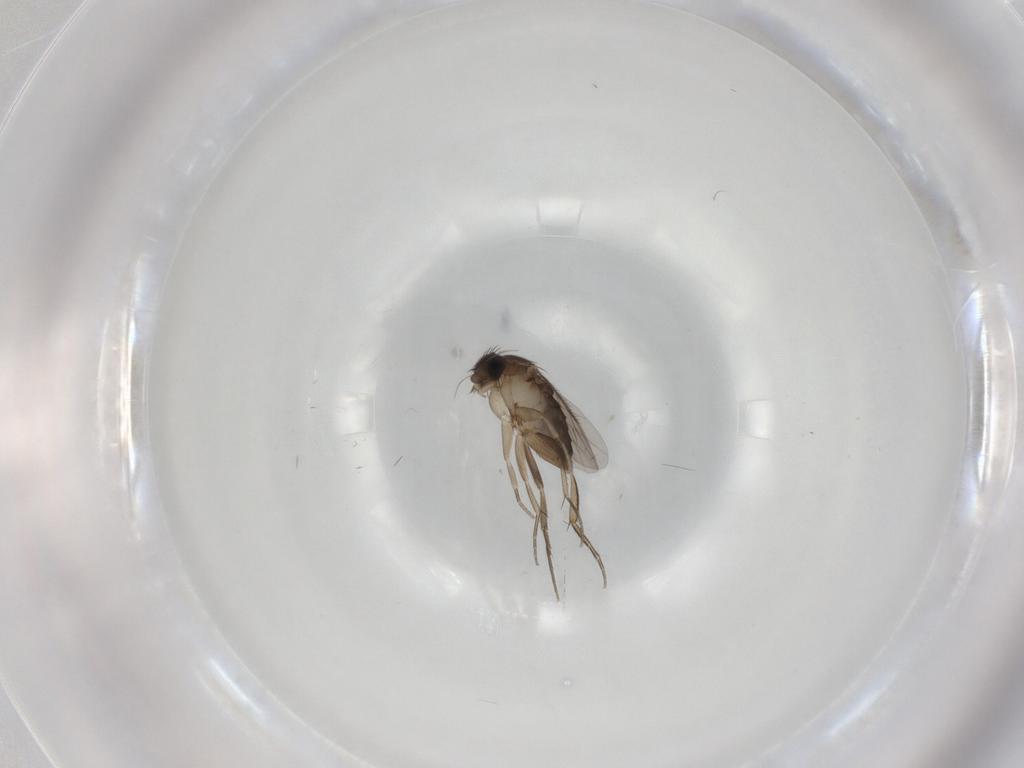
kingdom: Animalia
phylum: Arthropoda
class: Insecta
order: Diptera
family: Phoridae
